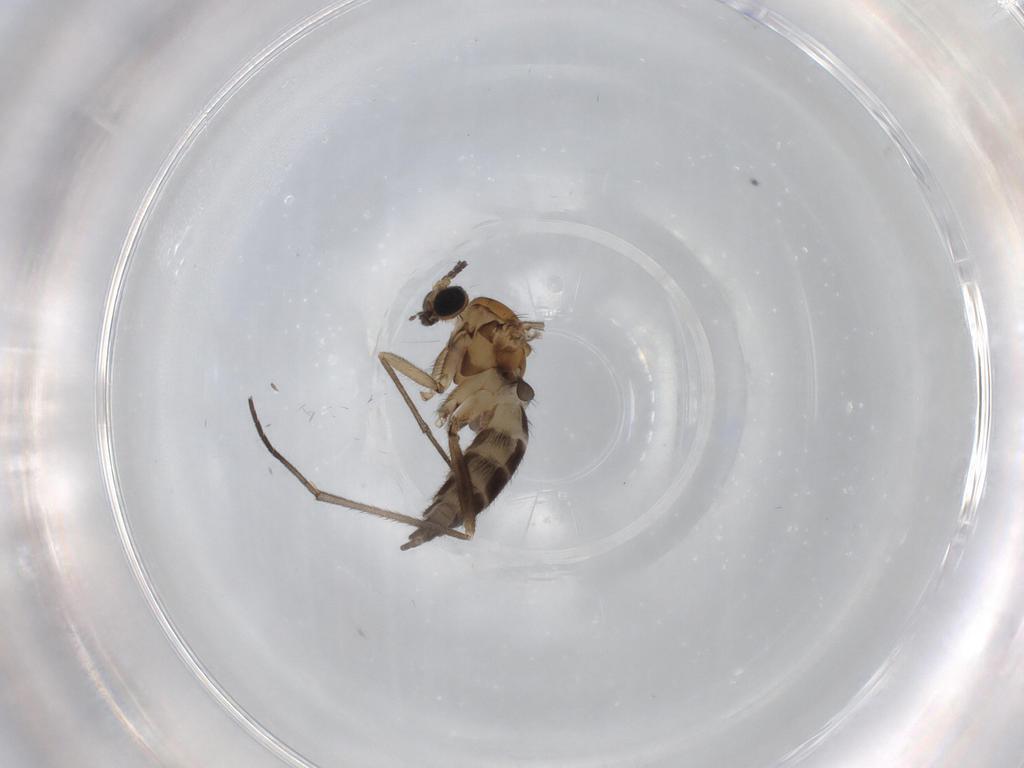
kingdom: Animalia
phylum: Arthropoda
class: Insecta
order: Diptera
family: Sciaridae
